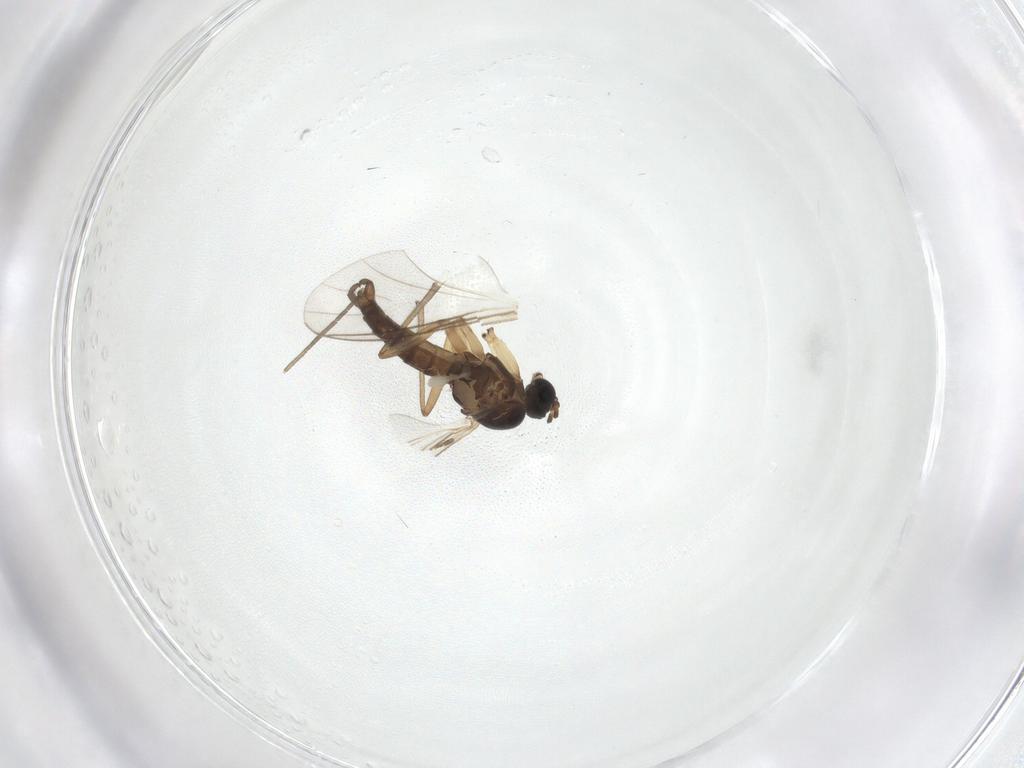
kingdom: Animalia
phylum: Arthropoda
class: Insecta
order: Diptera
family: Sciaridae
